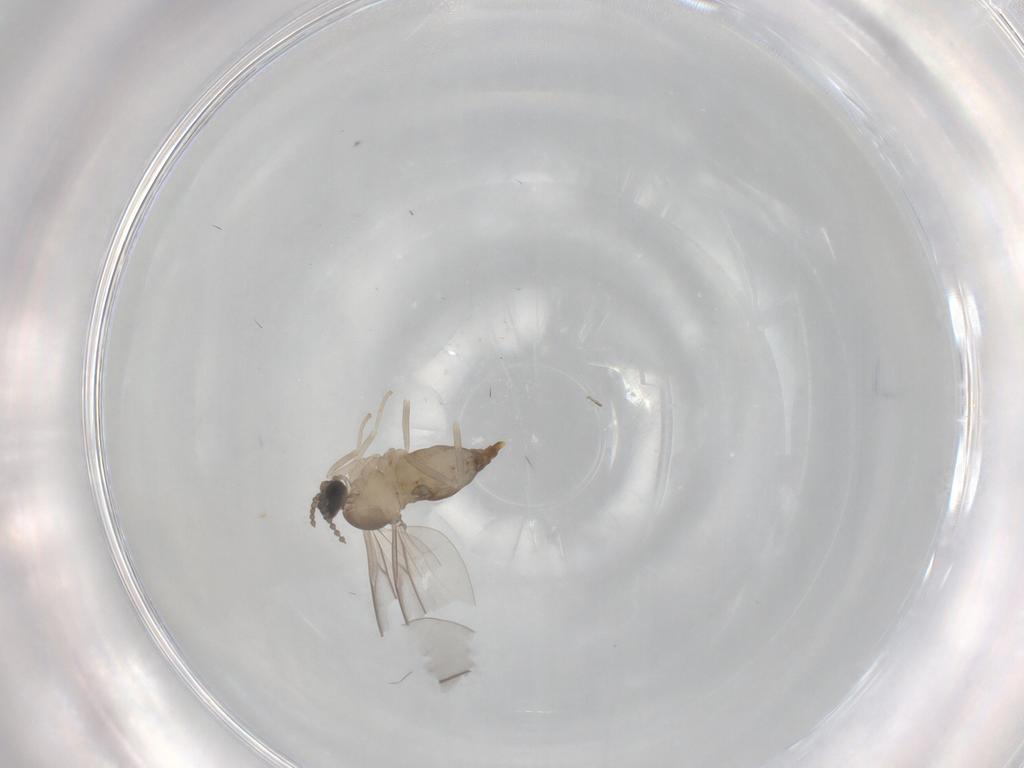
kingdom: Animalia
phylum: Arthropoda
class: Insecta
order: Diptera
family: Cecidomyiidae
